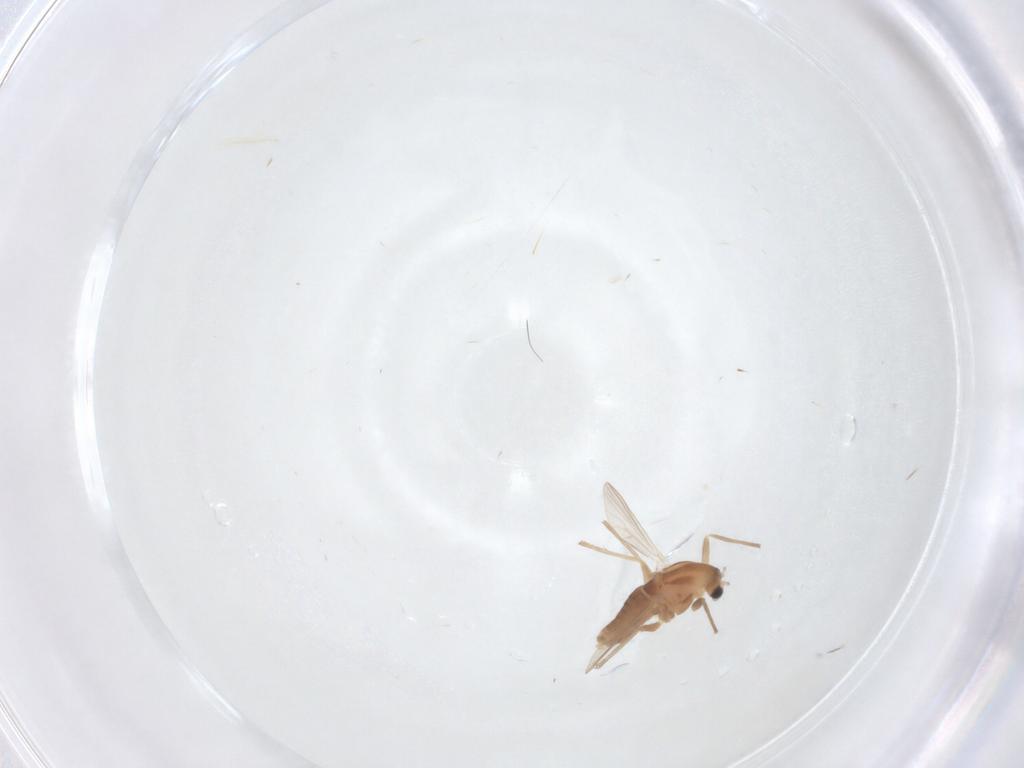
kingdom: Animalia
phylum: Arthropoda
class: Insecta
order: Diptera
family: Chironomidae
